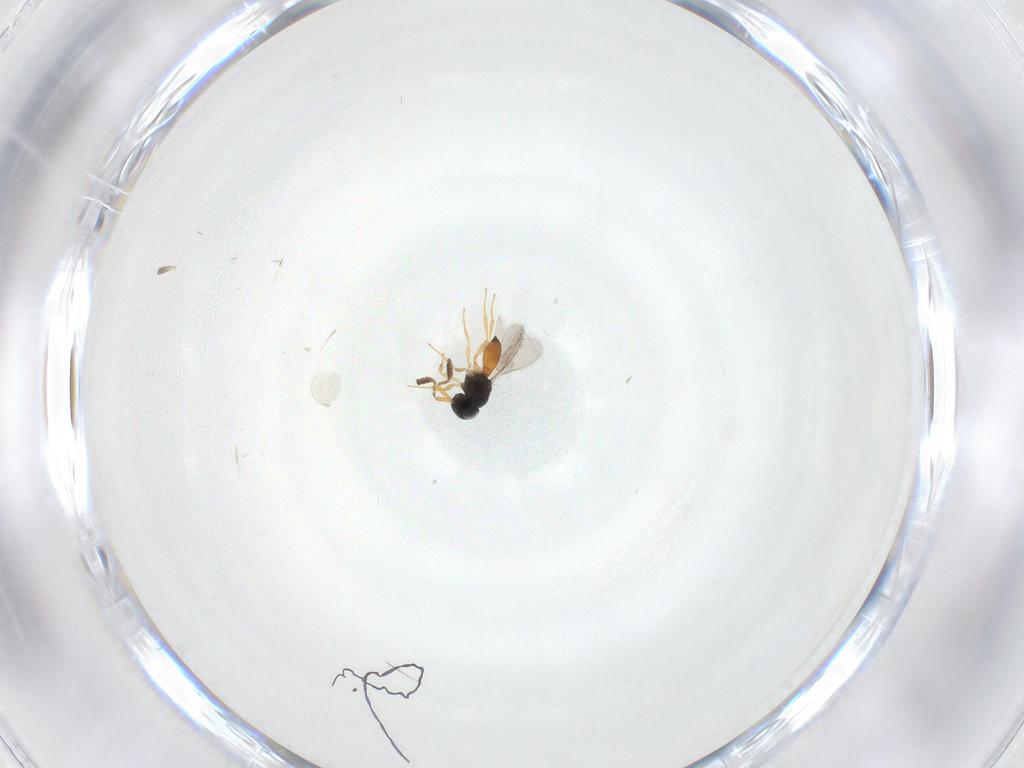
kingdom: Animalia
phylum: Arthropoda
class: Insecta
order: Hymenoptera
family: Scelionidae
